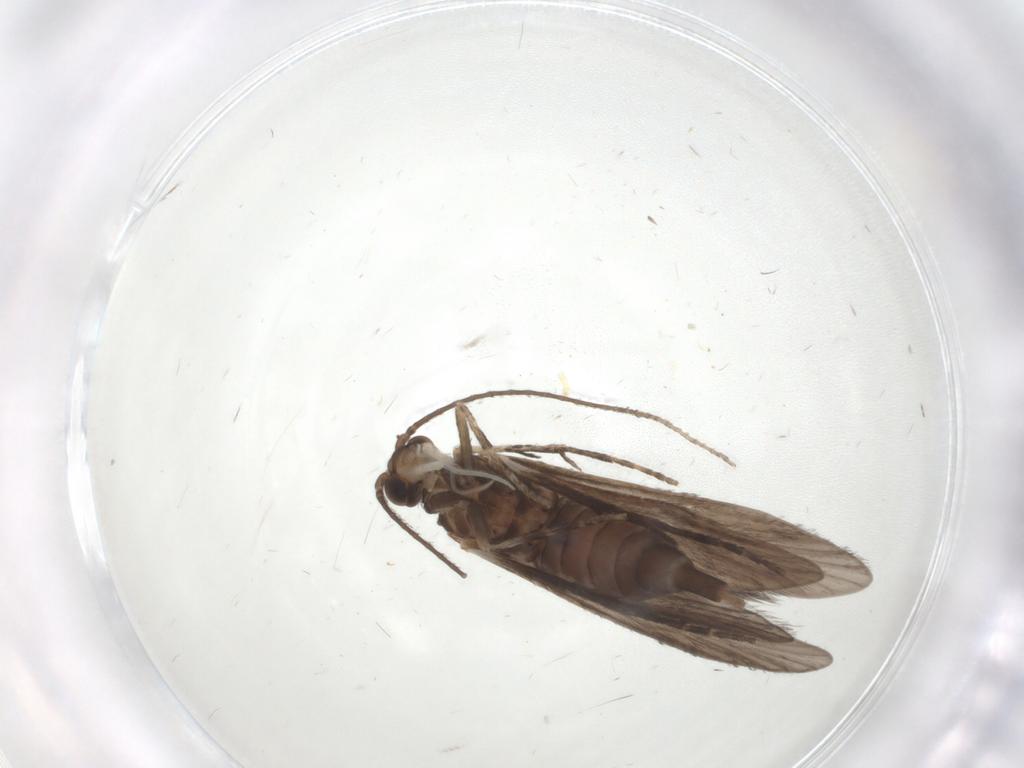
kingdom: Animalia
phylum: Arthropoda
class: Insecta
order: Trichoptera
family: Xiphocentronidae
